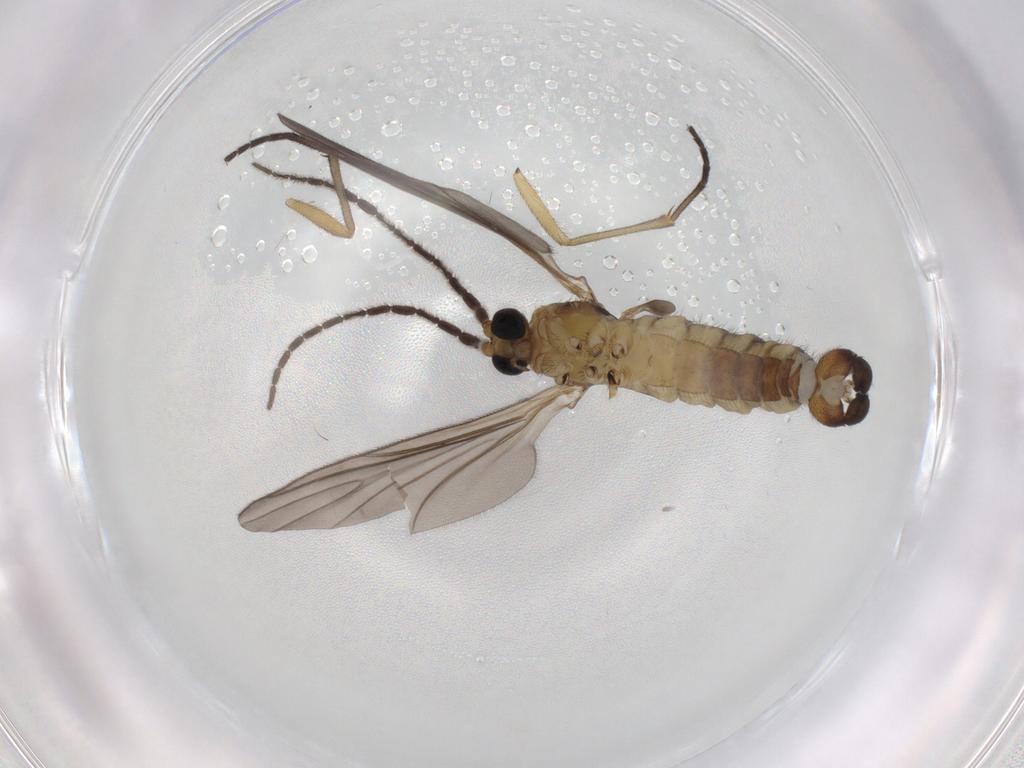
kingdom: Animalia
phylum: Arthropoda
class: Insecta
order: Diptera
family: Sciaridae
